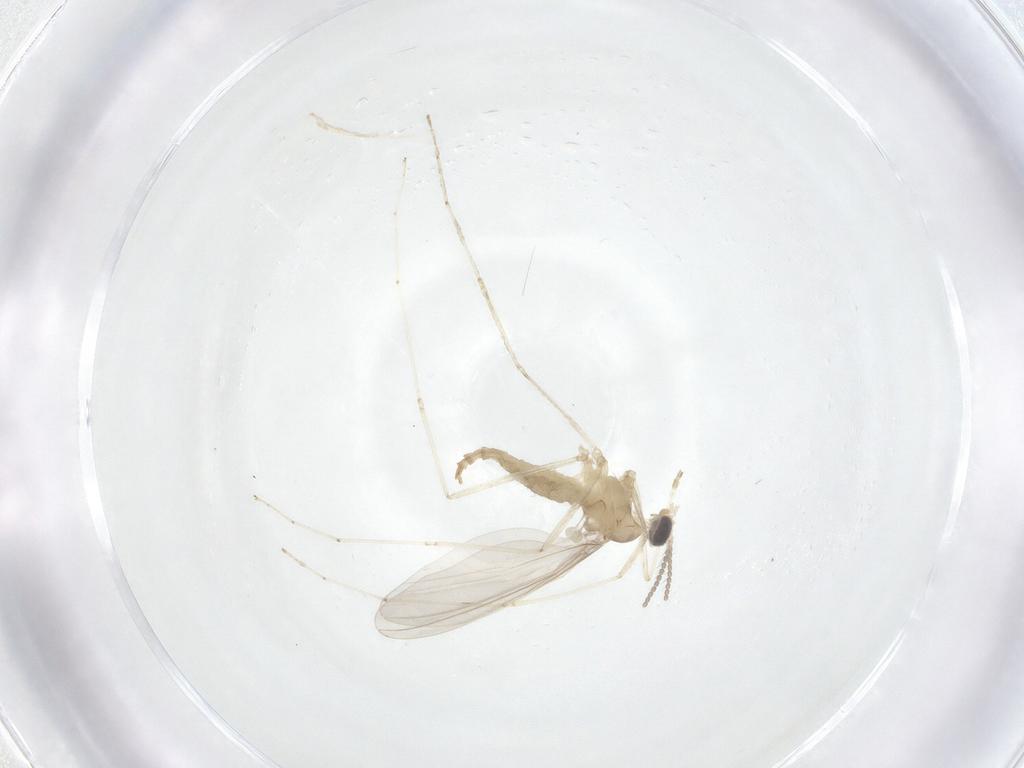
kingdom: Animalia
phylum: Arthropoda
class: Insecta
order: Diptera
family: Cecidomyiidae
